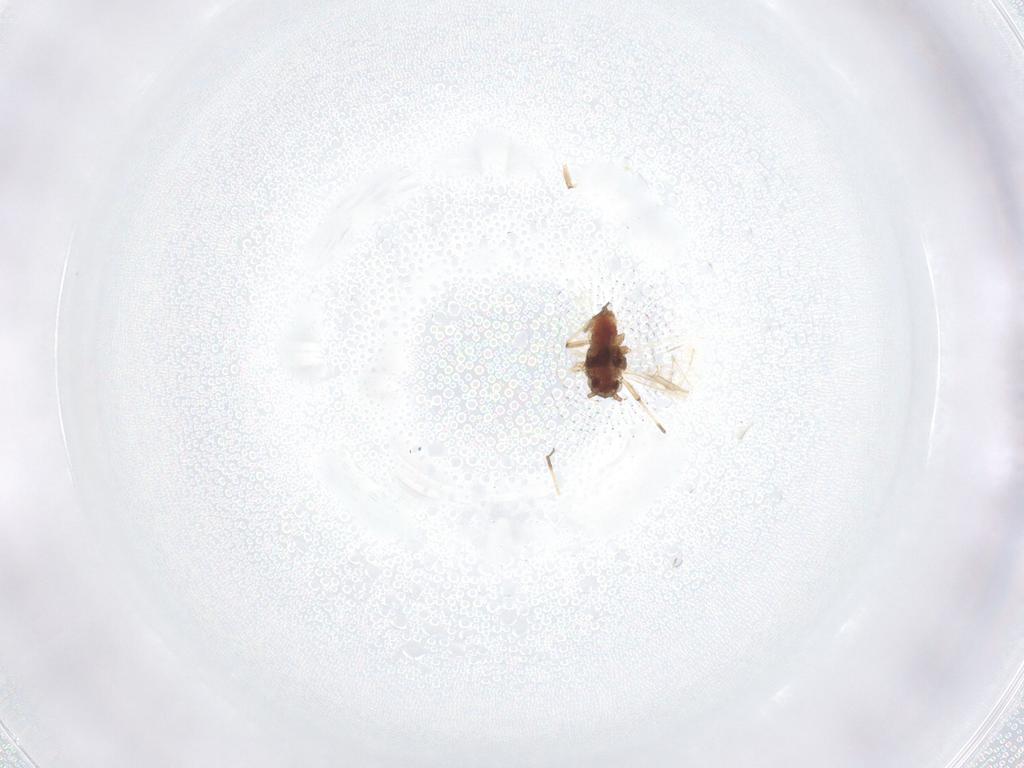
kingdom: Animalia
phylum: Arthropoda
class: Insecta
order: Hemiptera
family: Aphididae
